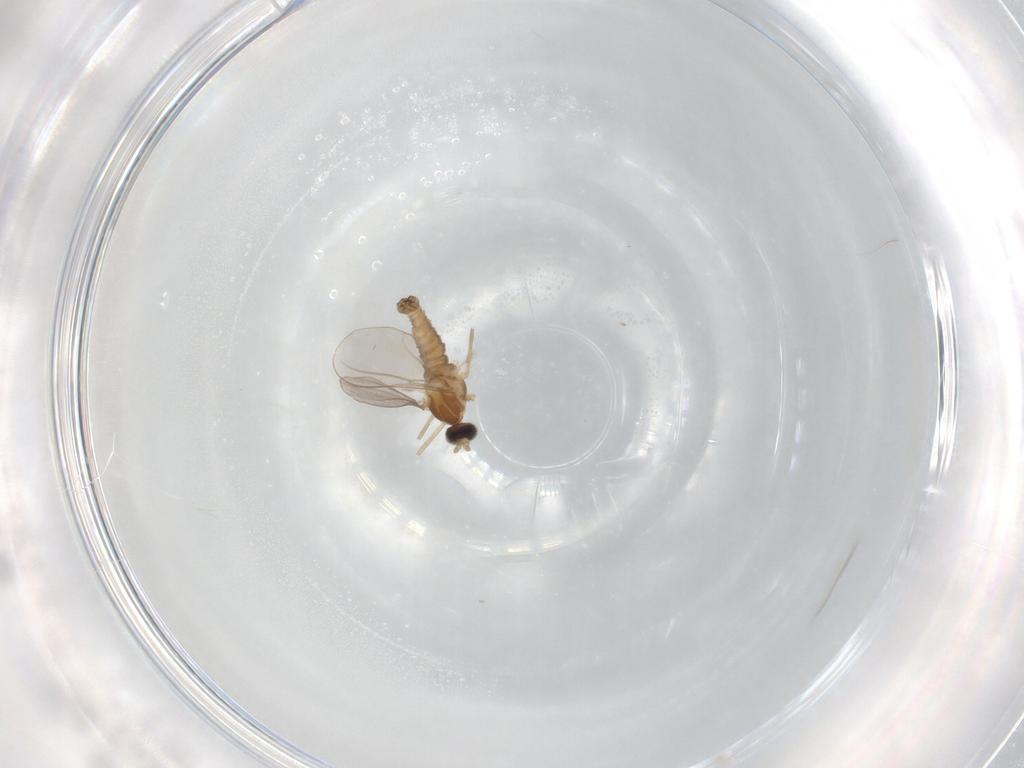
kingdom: Animalia
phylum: Arthropoda
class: Insecta
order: Diptera
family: Cecidomyiidae
